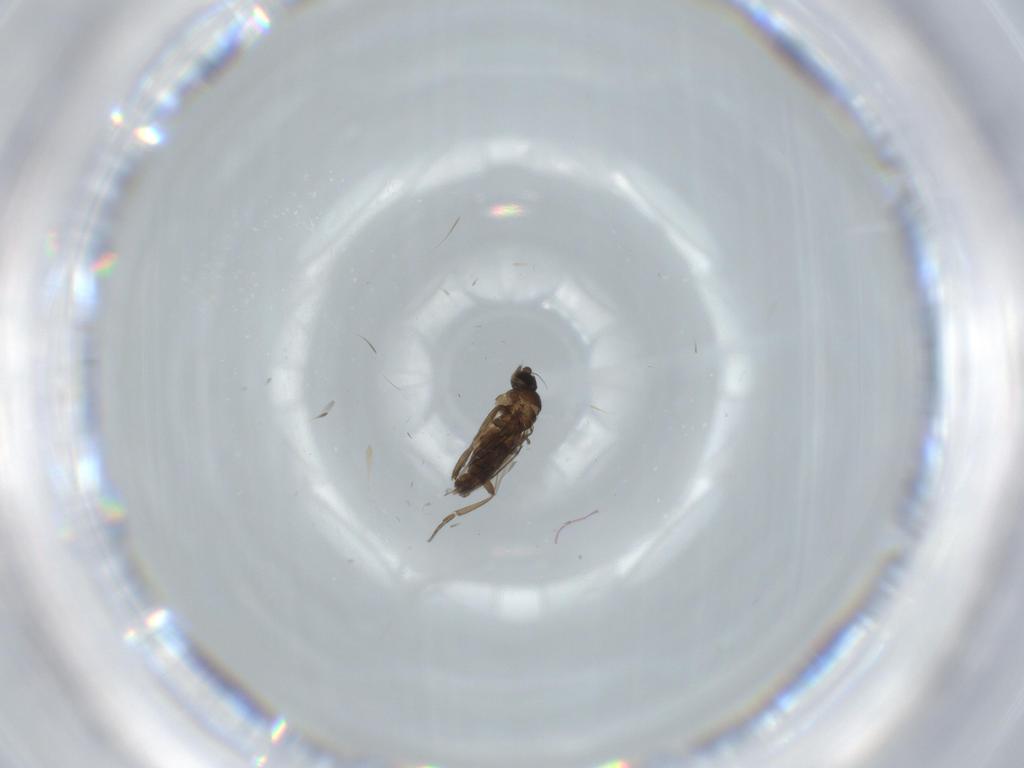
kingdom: Animalia
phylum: Arthropoda
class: Insecta
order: Diptera
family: Phoridae
